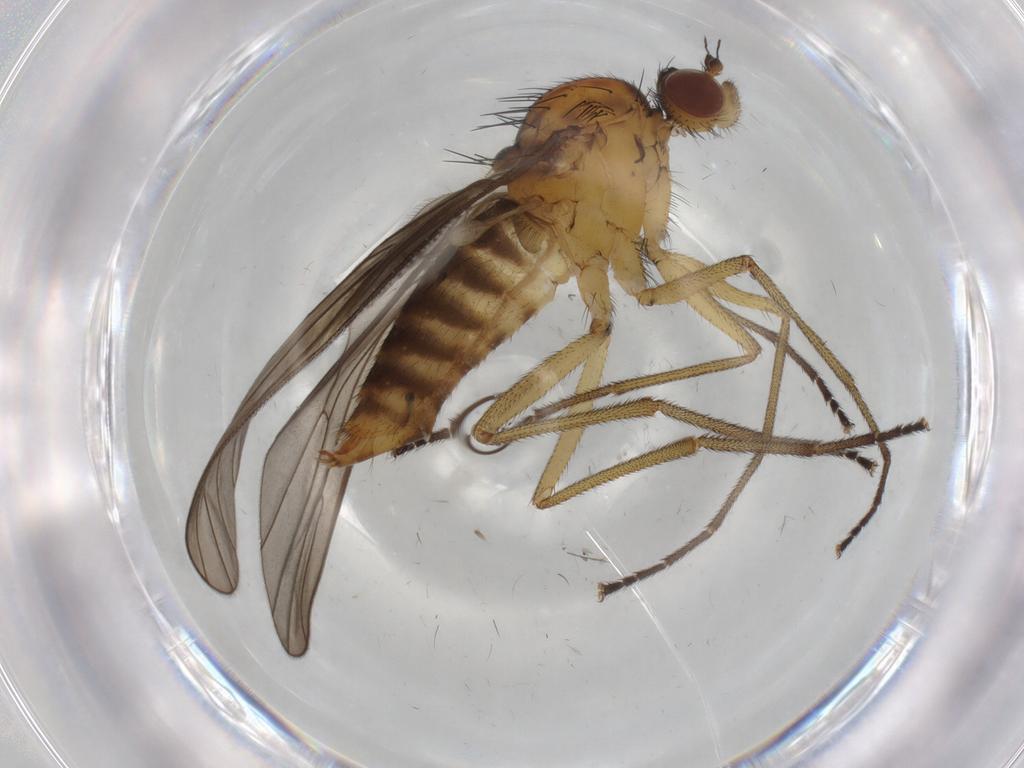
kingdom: Animalia
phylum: Arthropoda
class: Insecta
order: Diptera
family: Brachystomatidae
